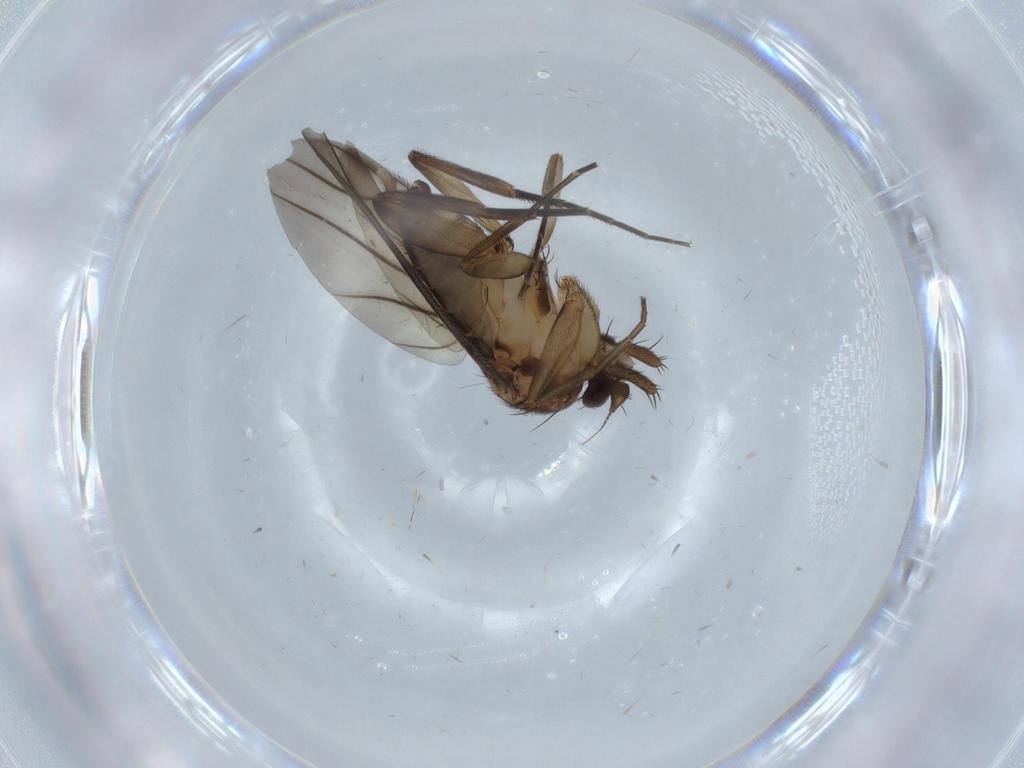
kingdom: Animalia
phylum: Arthropoda
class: Insecta
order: Diptera
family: Phoridae
